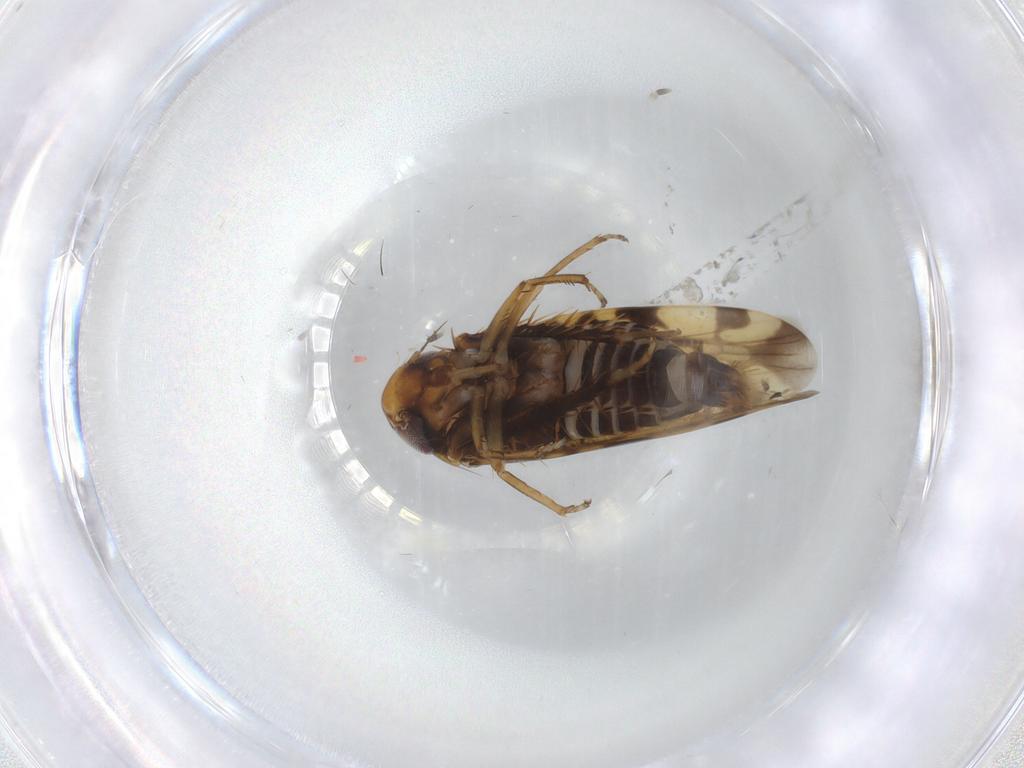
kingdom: Animalia
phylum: Arthropoda
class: Insecta
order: Hemiptera
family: Cicadellidae
